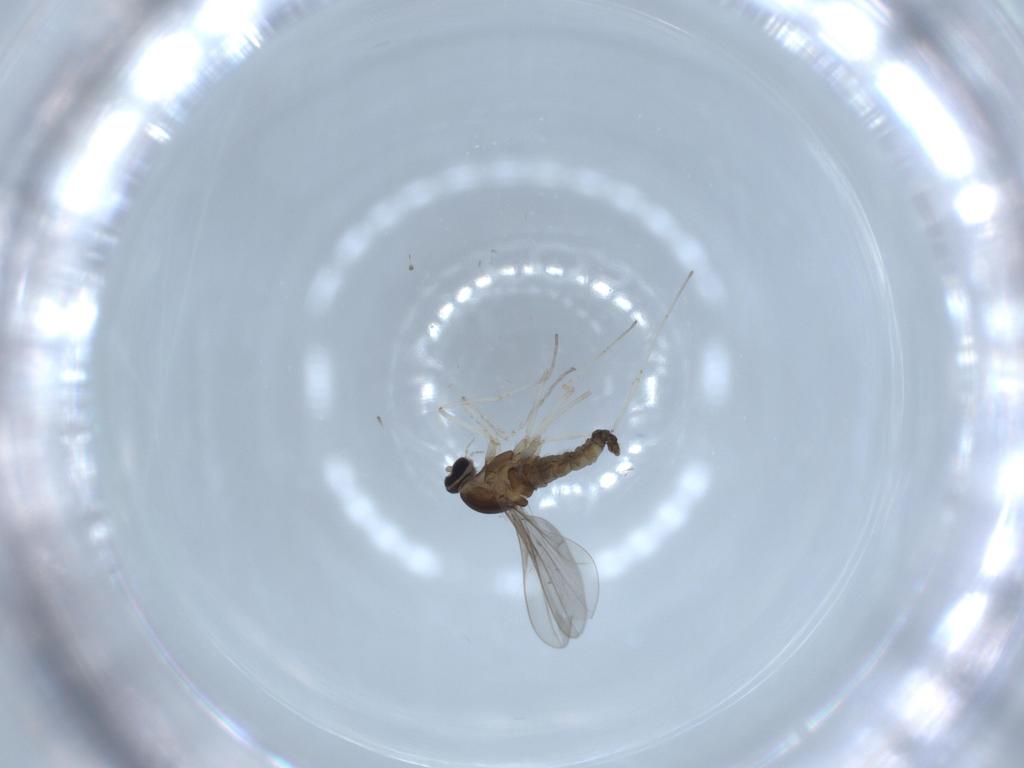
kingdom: Animalia
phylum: Arthropoda
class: Insecta
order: Diptera
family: Cecidomyiidae
